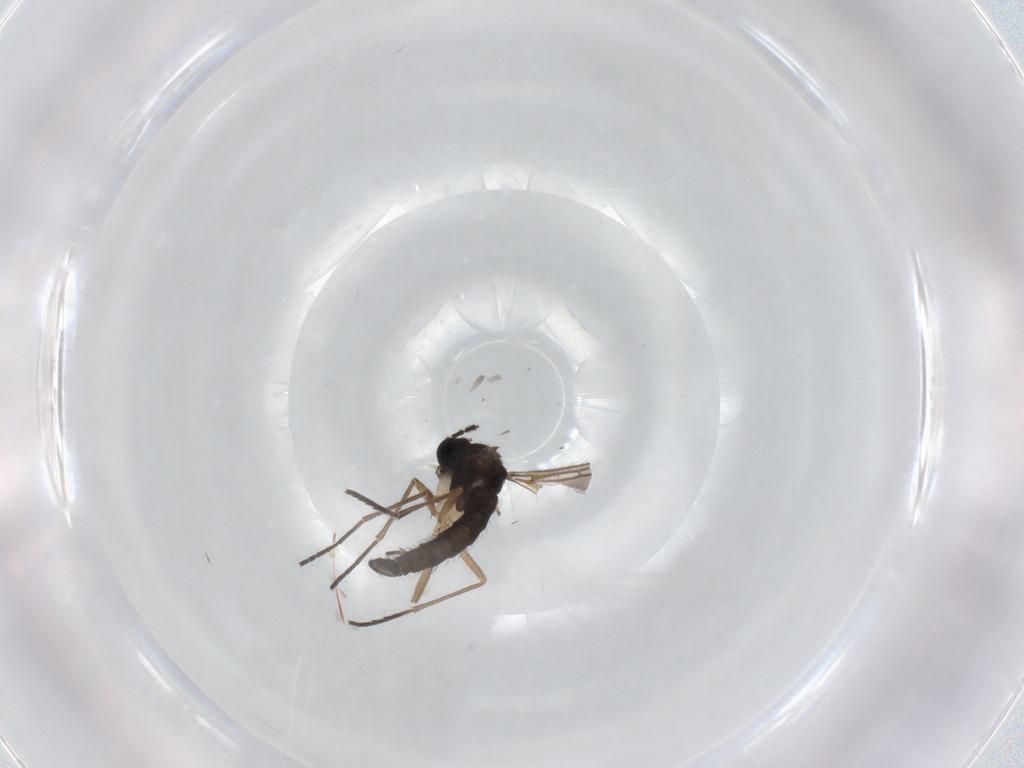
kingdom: Animalia
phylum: Arthropoda
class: Insecta
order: Diptera
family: Sciaridae
